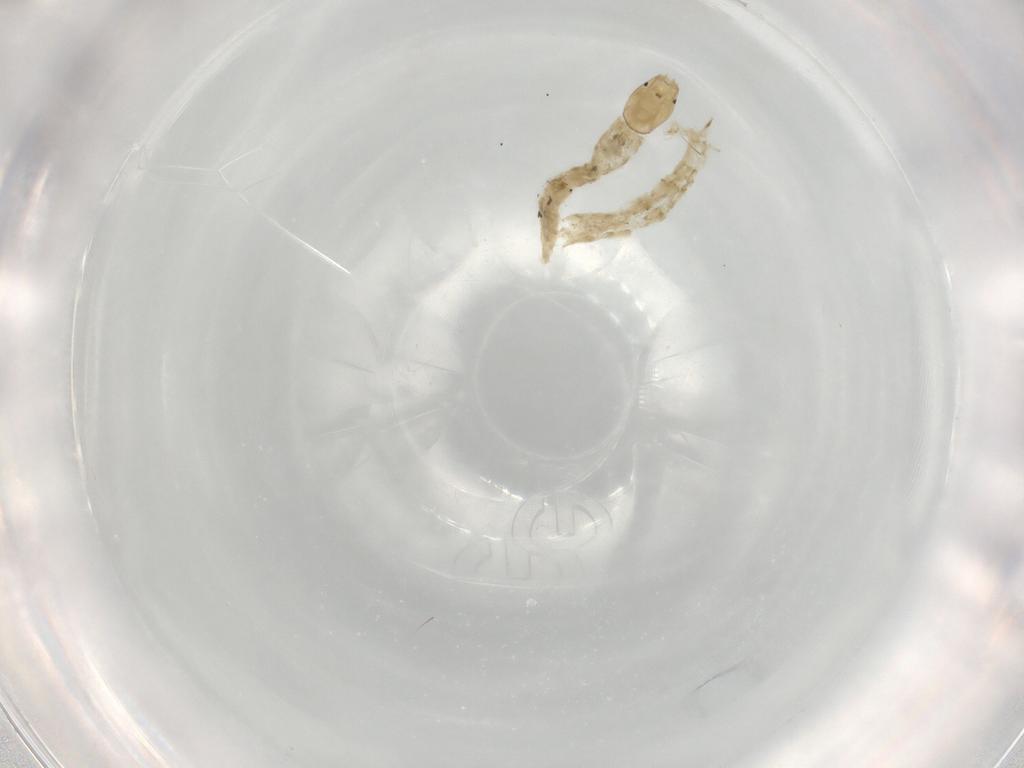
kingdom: Animalia
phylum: Arthropoda
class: Insecta
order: Diptera
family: Chironomidae
